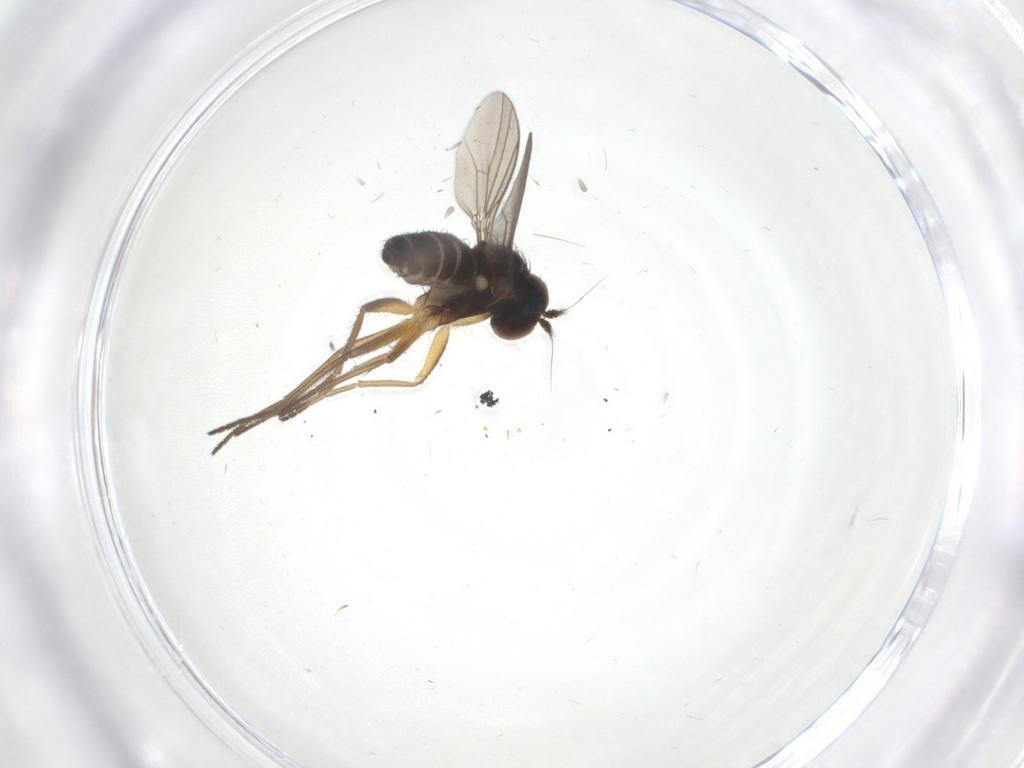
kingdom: Animalia
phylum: Arthropoda
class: Insecta
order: Diptera
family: Dolichopodidae
